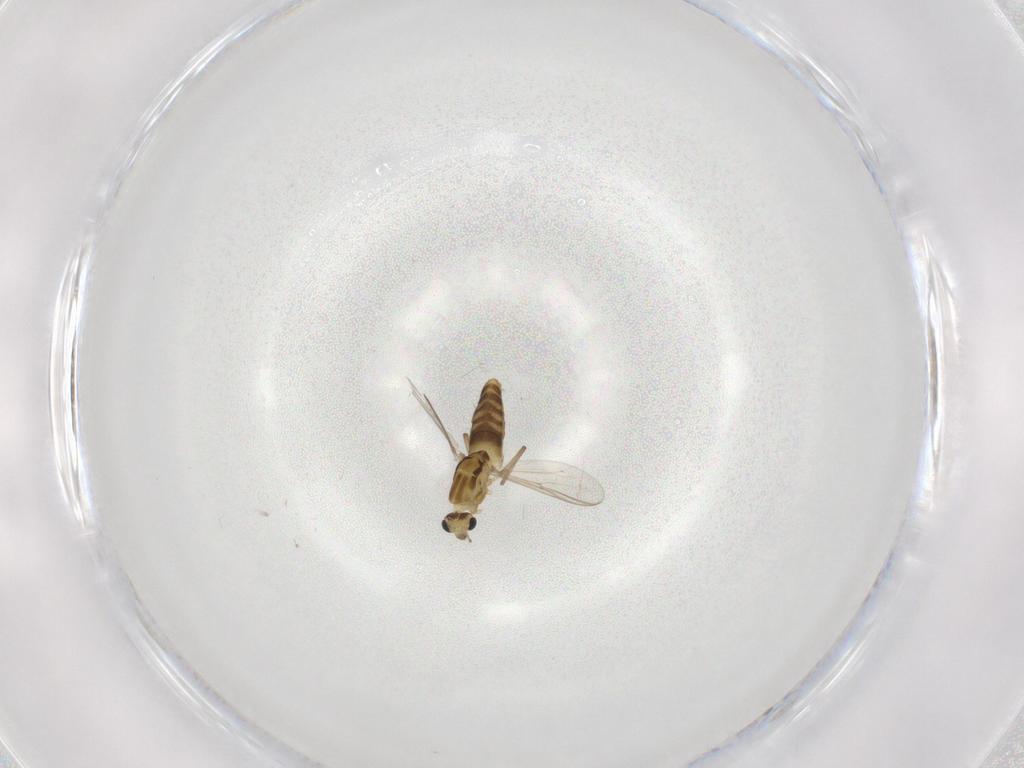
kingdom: Animalia
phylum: Arthropoda
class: Insecta
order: Diptera
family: Chironomidae
